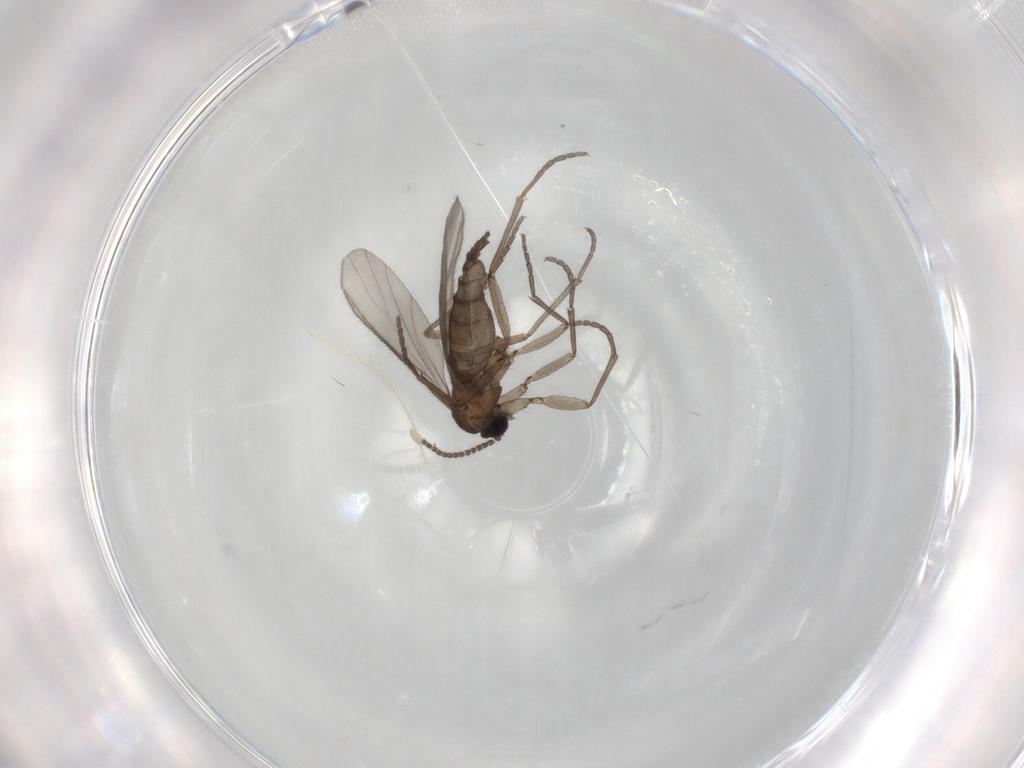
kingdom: Animalia
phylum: Arthropoda
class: Insecta
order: Diptera
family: Sciaridae
